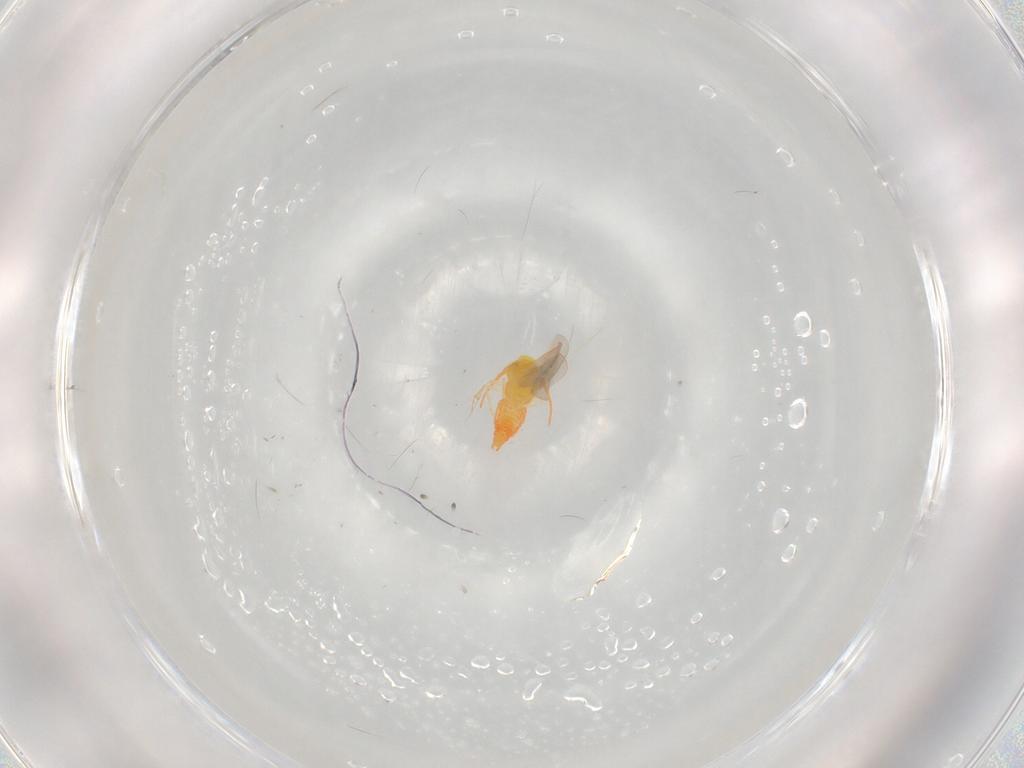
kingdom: Animalia
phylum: Arthropoda
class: Insecta
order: Hemiptera
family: Aleyrodidae
